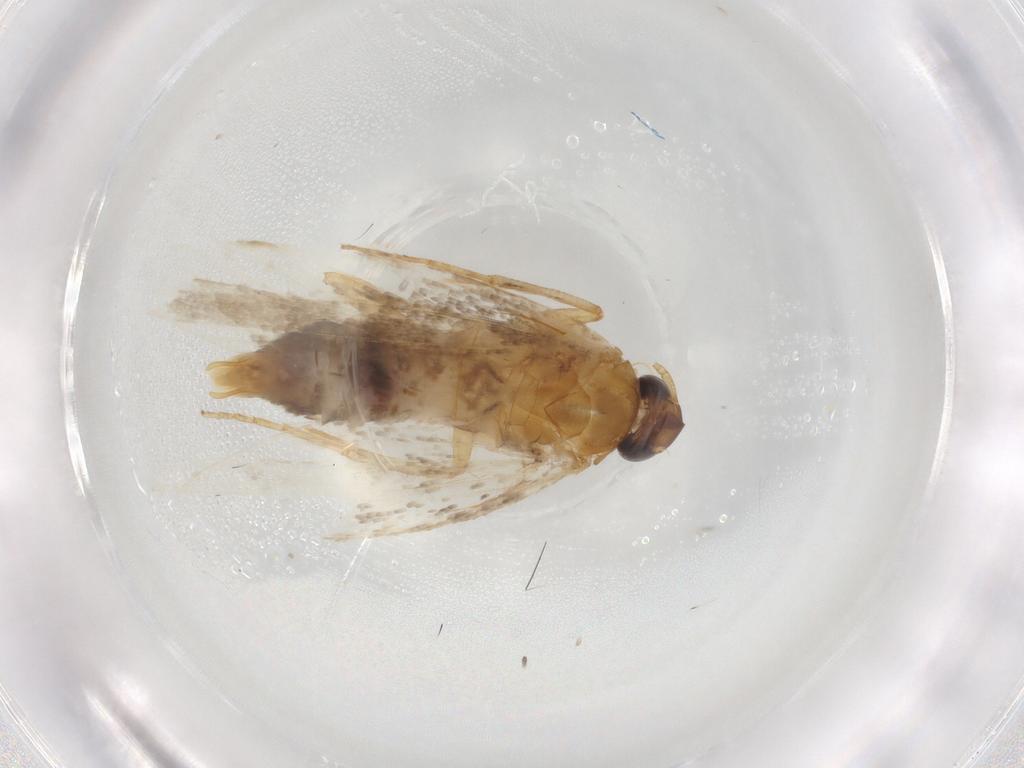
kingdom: Animalia
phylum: Arthropoda
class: Insecta
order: Lepidoptera
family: Gelechiidae
